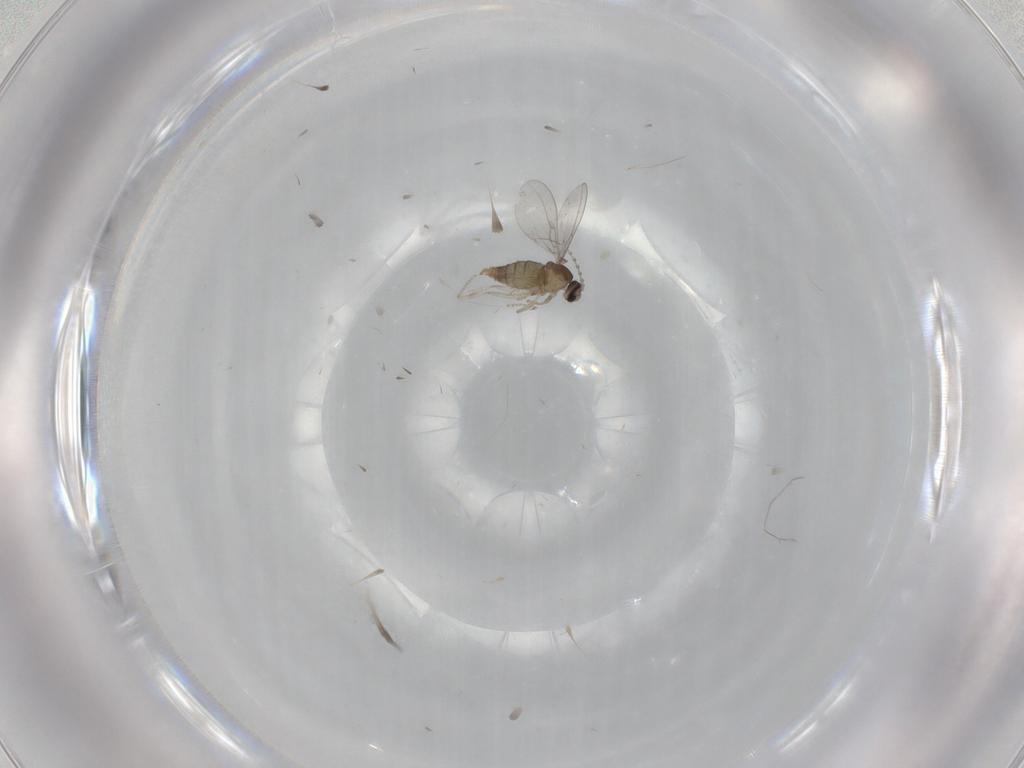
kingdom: Animalia
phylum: Arthropoda
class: Insecta
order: Diptera
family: Cecidomyiidae
